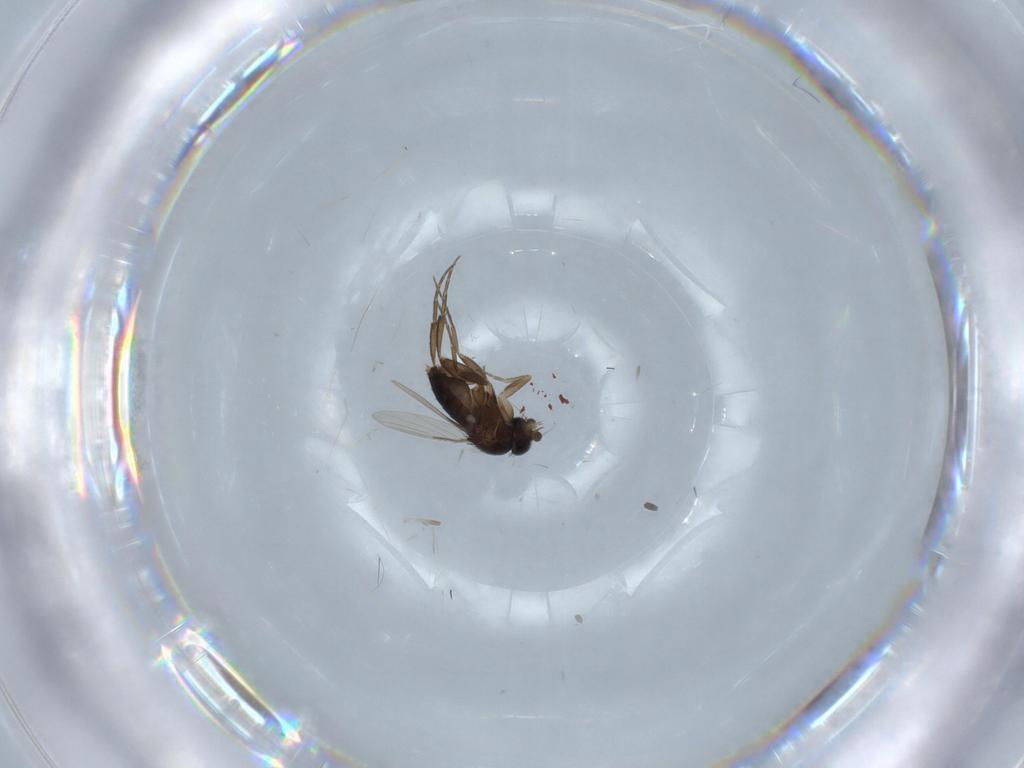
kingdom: Animalia
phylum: Arthropoda
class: Insecta
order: Diptera
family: Phoridae
